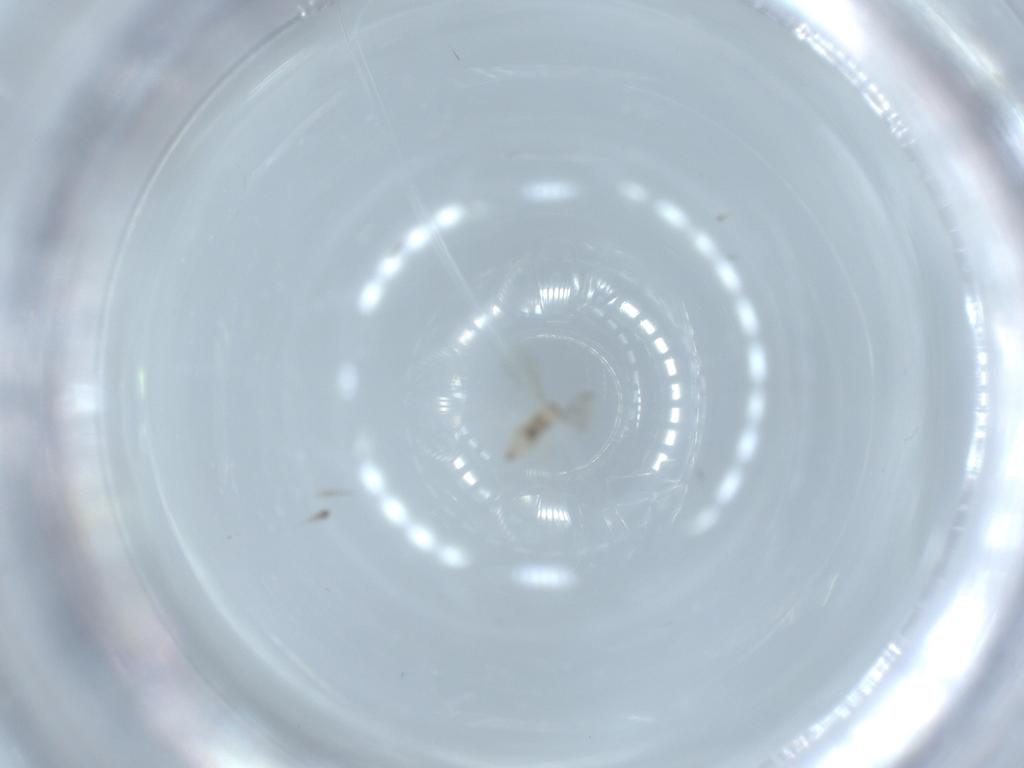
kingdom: Animalia
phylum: Arthropoda
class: Insecta
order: Diptera
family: Cecidomyiidae
